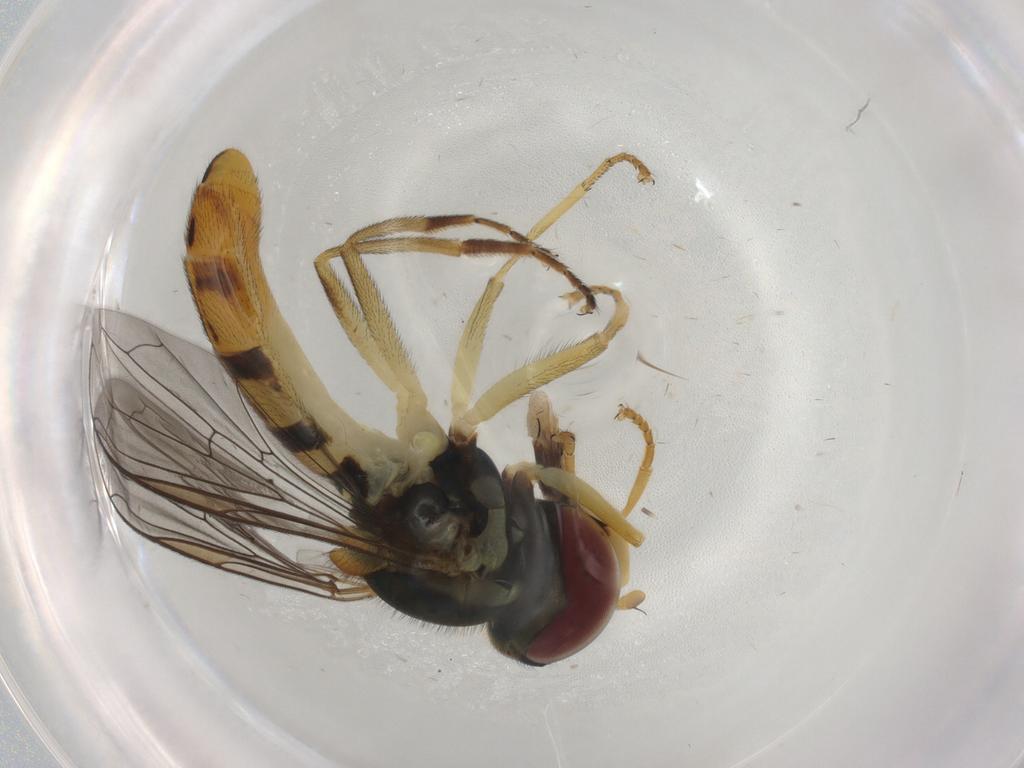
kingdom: Animalia
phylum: Arthropoda
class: Insecta
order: Diptera
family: Syrphidae
